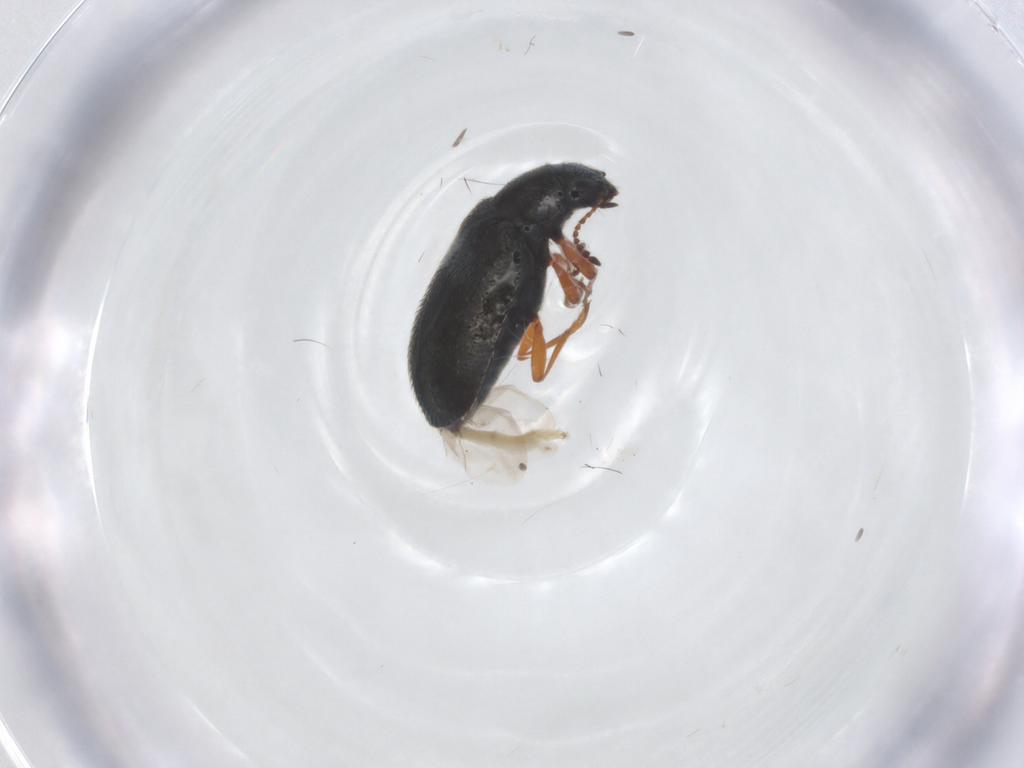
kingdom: Animalia
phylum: Arthropoda
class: Insecta
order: Coleoptera
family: Melyridae
